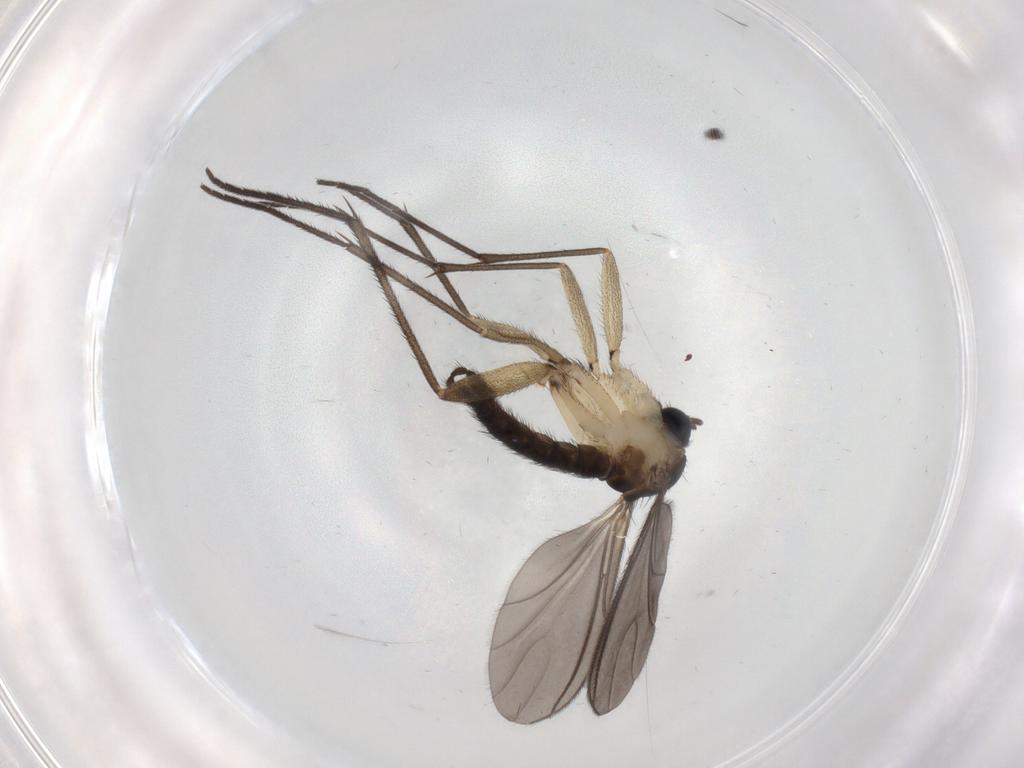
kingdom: Animalia
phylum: Arthropoda
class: Insecta
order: Diptera
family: Sciaridae
